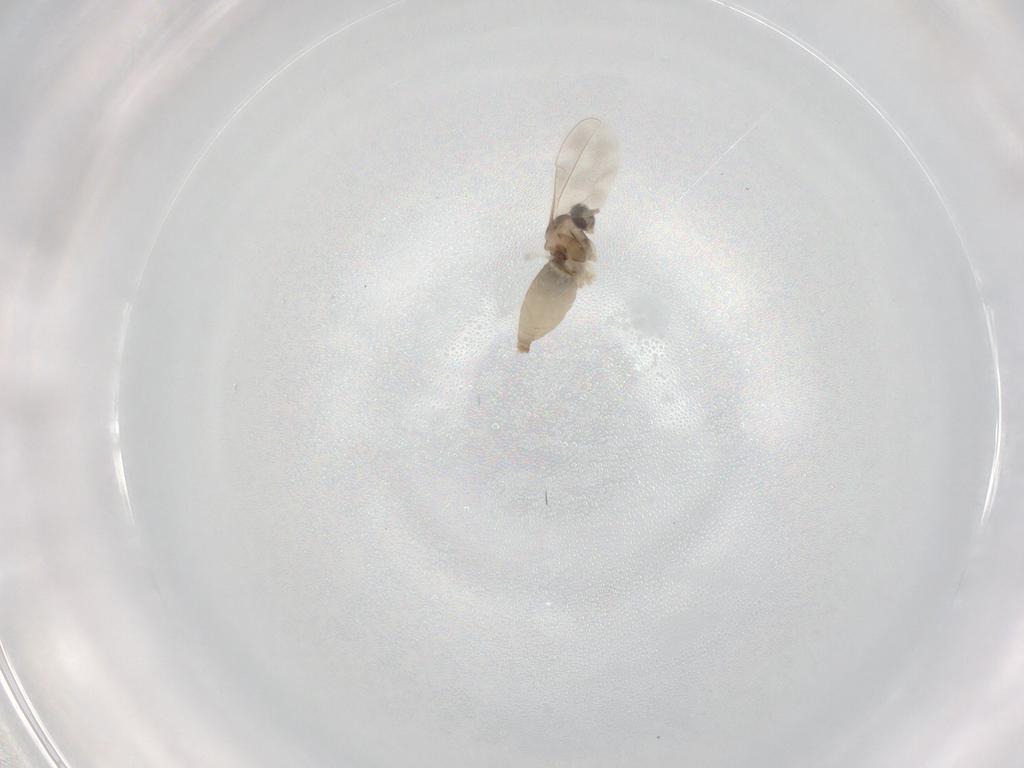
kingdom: Animalia
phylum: Arthropoda
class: Insecta
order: Diptera
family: Cecidomyiidae
